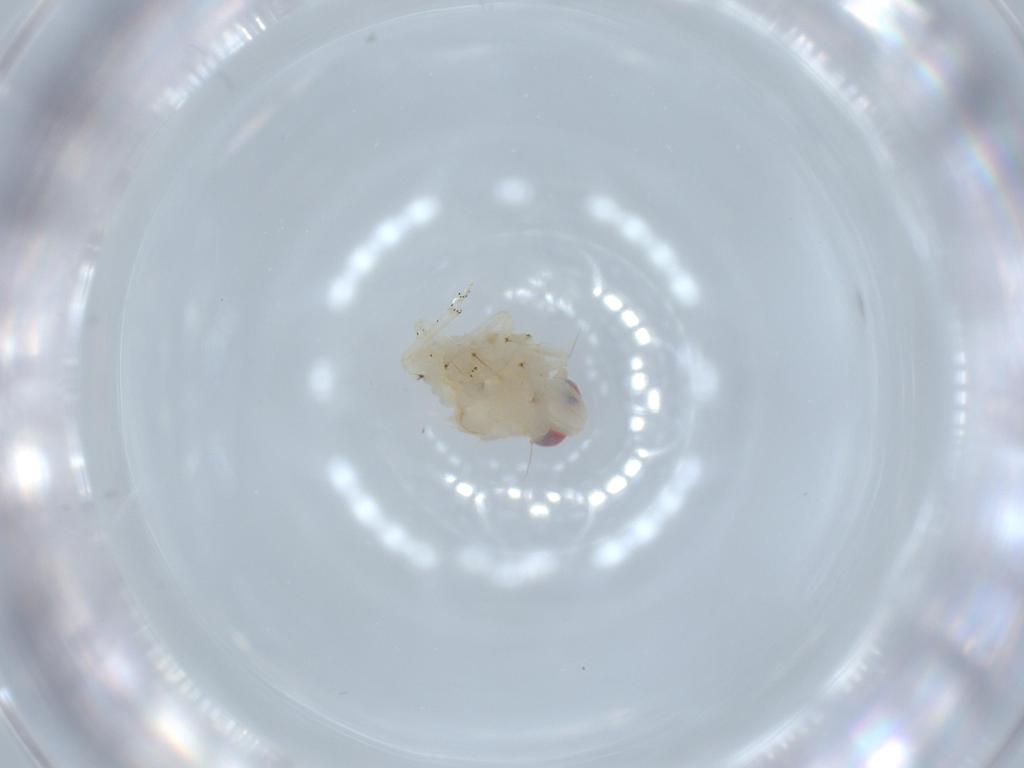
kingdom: Animalia
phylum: Arthropoda
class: Insecta
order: Hemiptera
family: Nogodinidae
